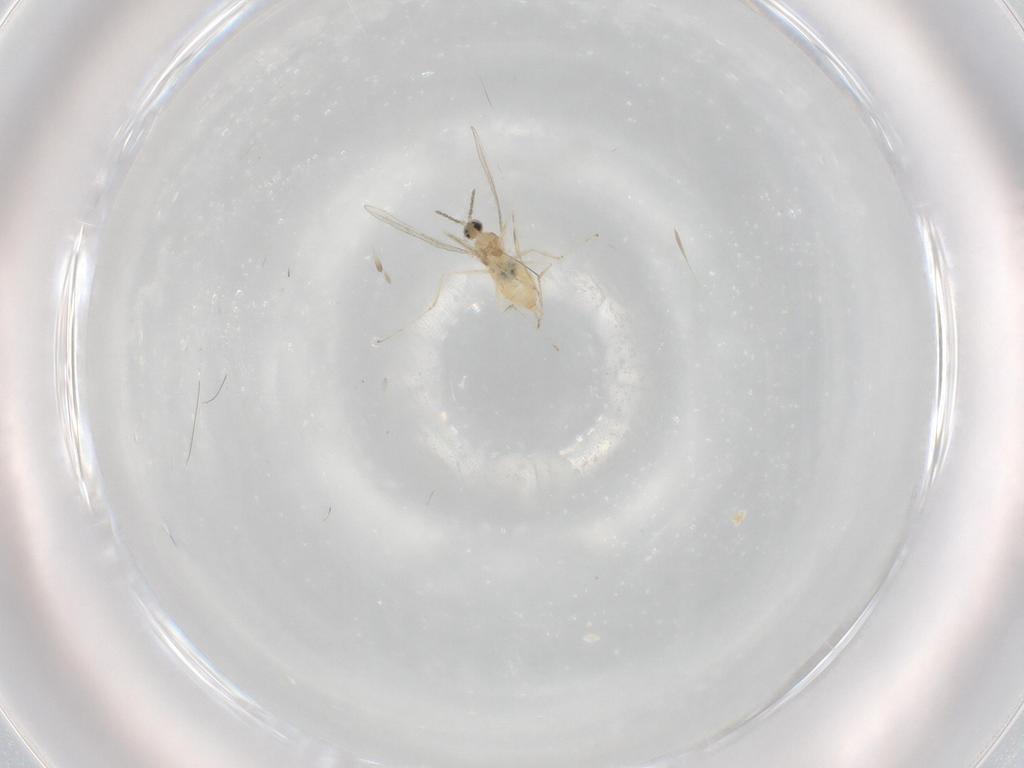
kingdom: Animalia
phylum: Arthropoda
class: Insecta
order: Diptera
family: Cecidomyiidae
